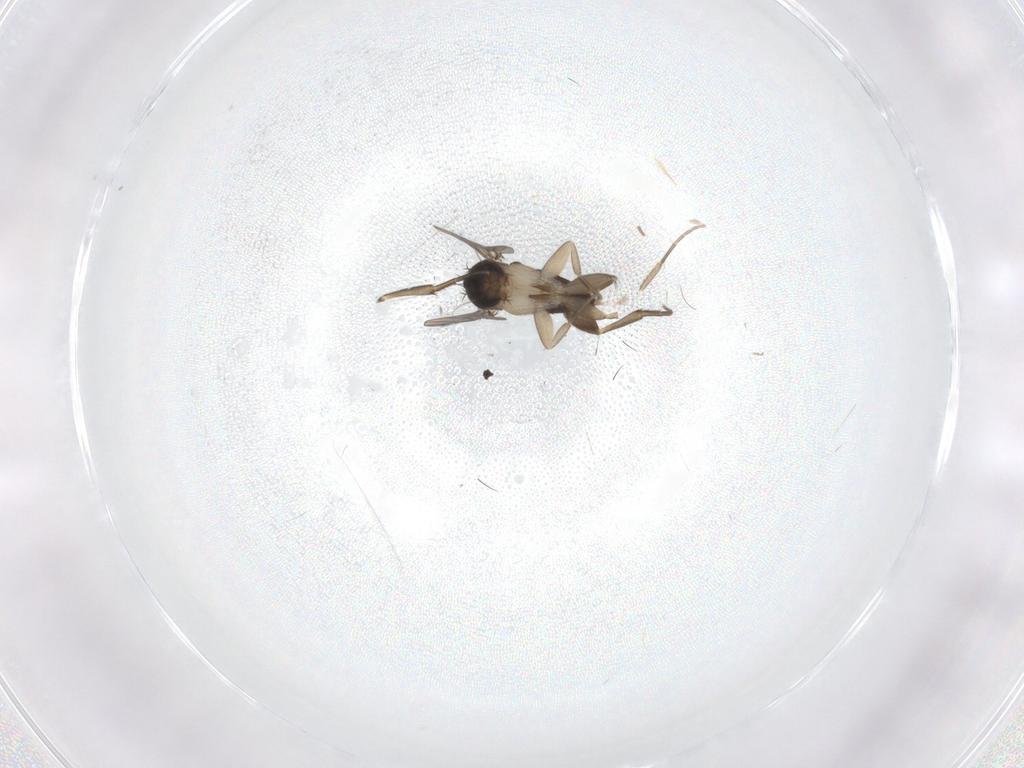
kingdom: Animalia
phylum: Arthropoda
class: Insecta
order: Diptera
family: Phoridae
